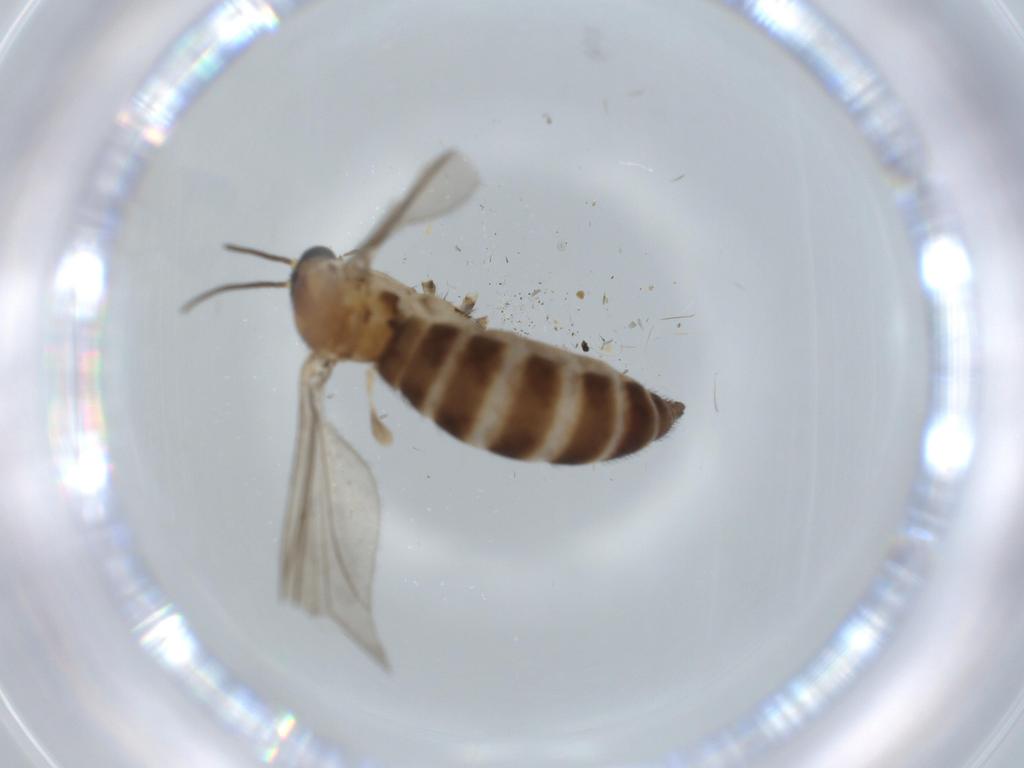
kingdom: Animalia
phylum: Arthropoda
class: Insecta
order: Diptera
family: Sciaridae
